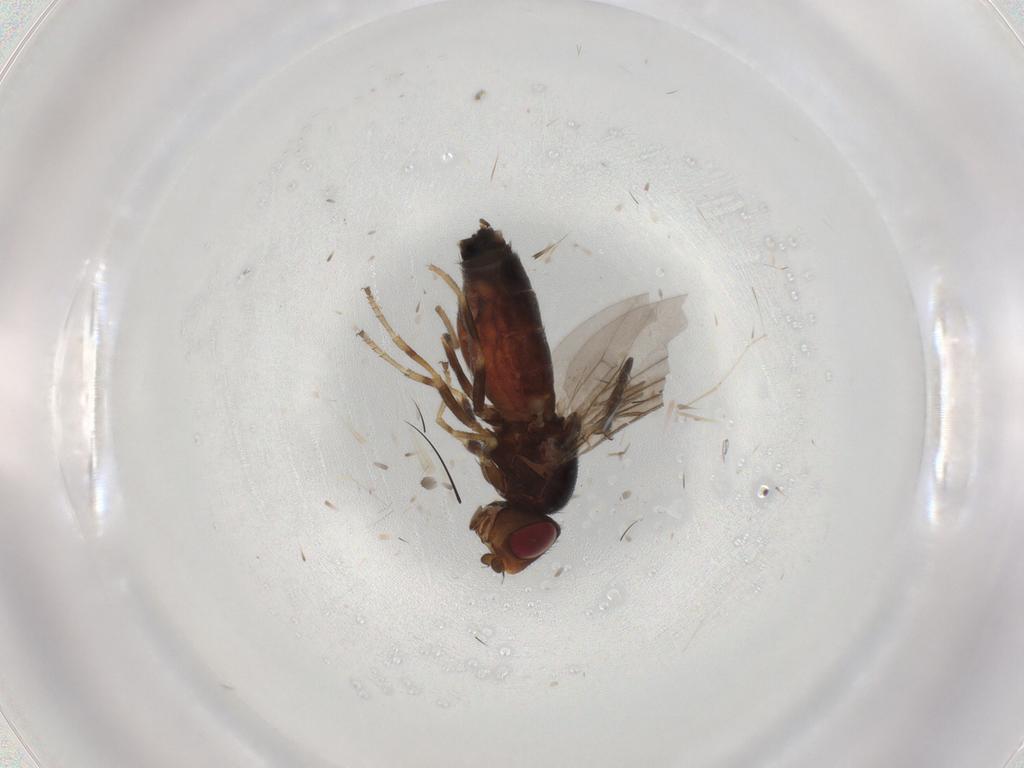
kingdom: Animalia
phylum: Arthropoda
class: Insecta
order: Diptera
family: Chloropidae
